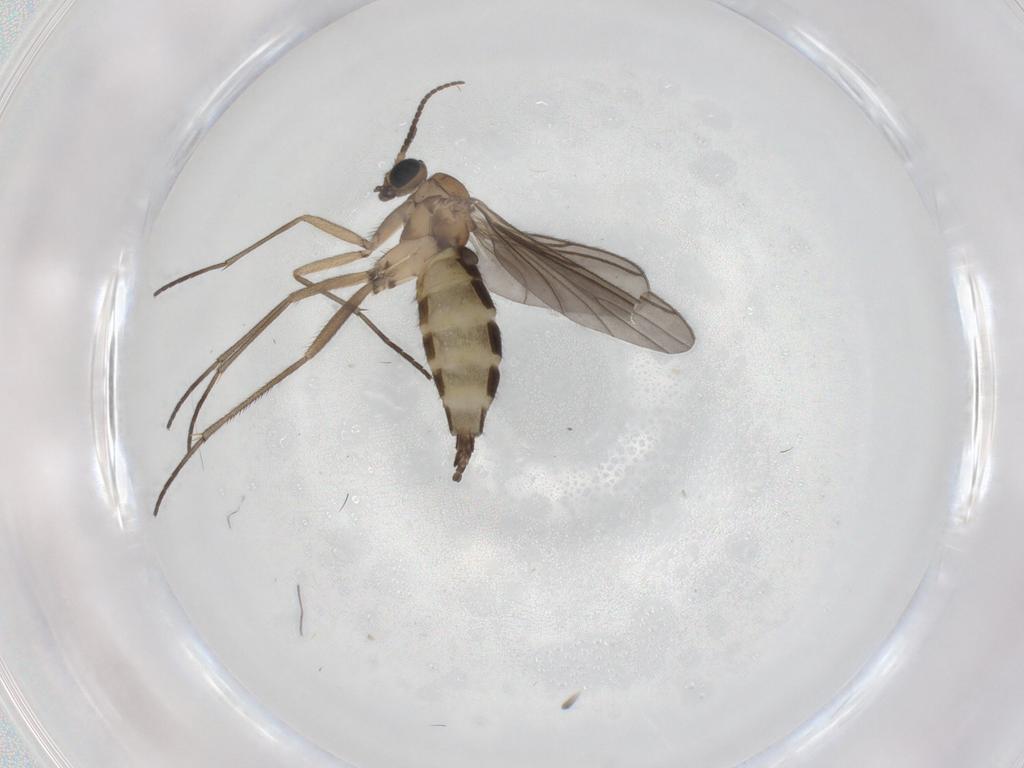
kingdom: Animalia
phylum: Arthropoda
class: Insecta
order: Diptera
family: Sciaridae
